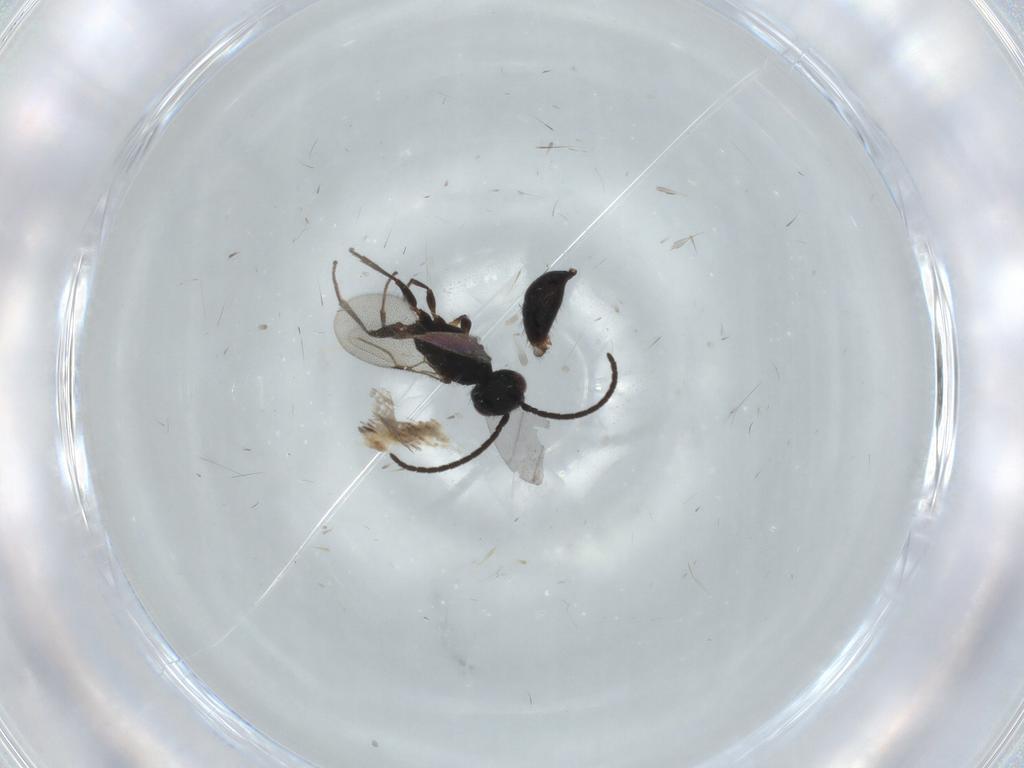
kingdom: Animalia
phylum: Arthropoda
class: Insecta
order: Hymenoptera
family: Bethylidae
